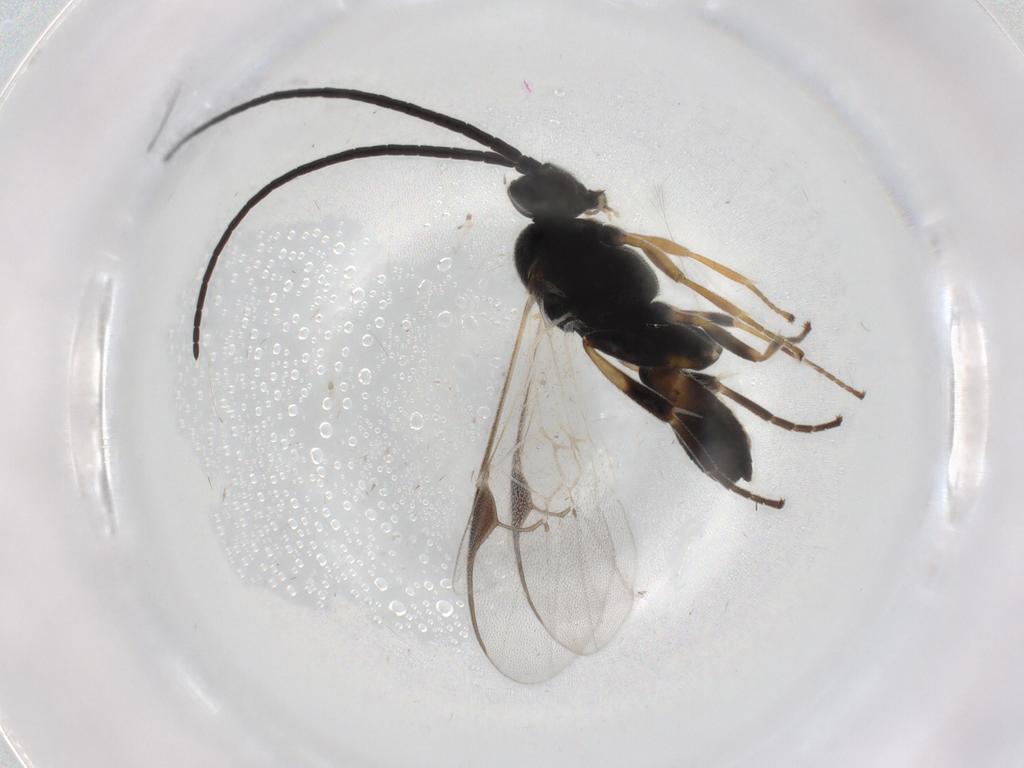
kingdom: Animalia
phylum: Arthropoda
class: Insecta
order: Hymenoptera
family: Braconidae
